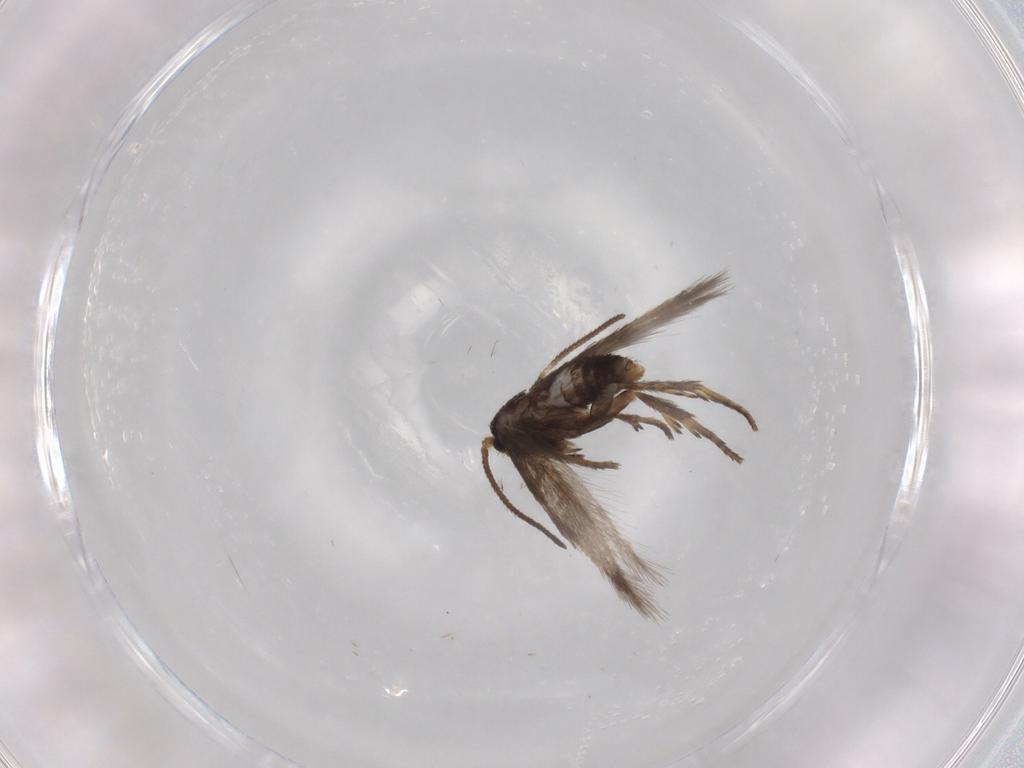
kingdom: Animalia
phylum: Arthropoda
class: Insecta
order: Lepidoptera
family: Nepticulidae
